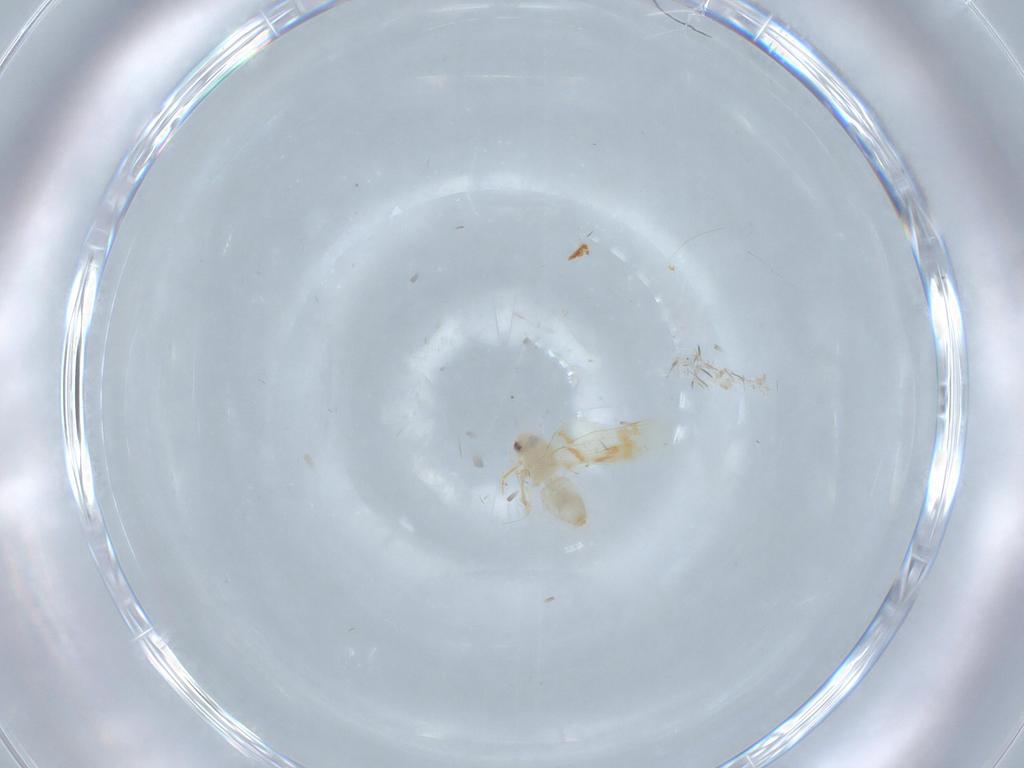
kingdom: Animalia
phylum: Arthropoda
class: Insecta
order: Hemiptera
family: Aleyrodidae
